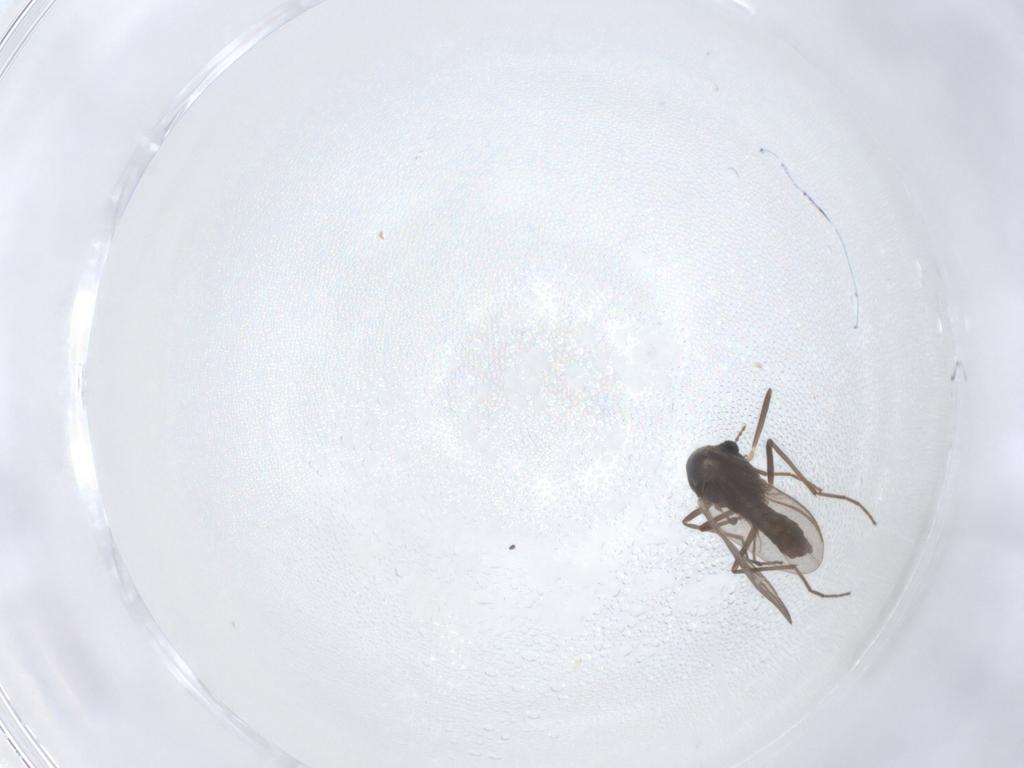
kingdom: Animalia
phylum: Arthropoda
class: Insecta
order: Diptera
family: Chironomidae
